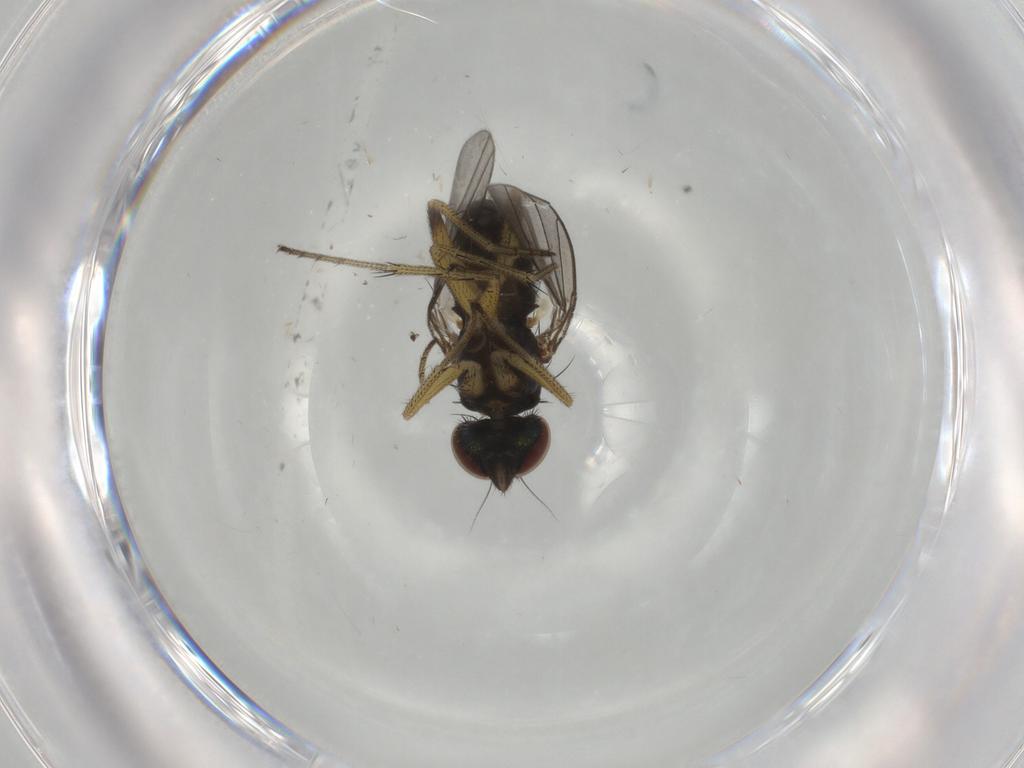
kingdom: Animalia
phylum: Arthropoda
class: Insecta
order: Diptera
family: Dolichopodidae
